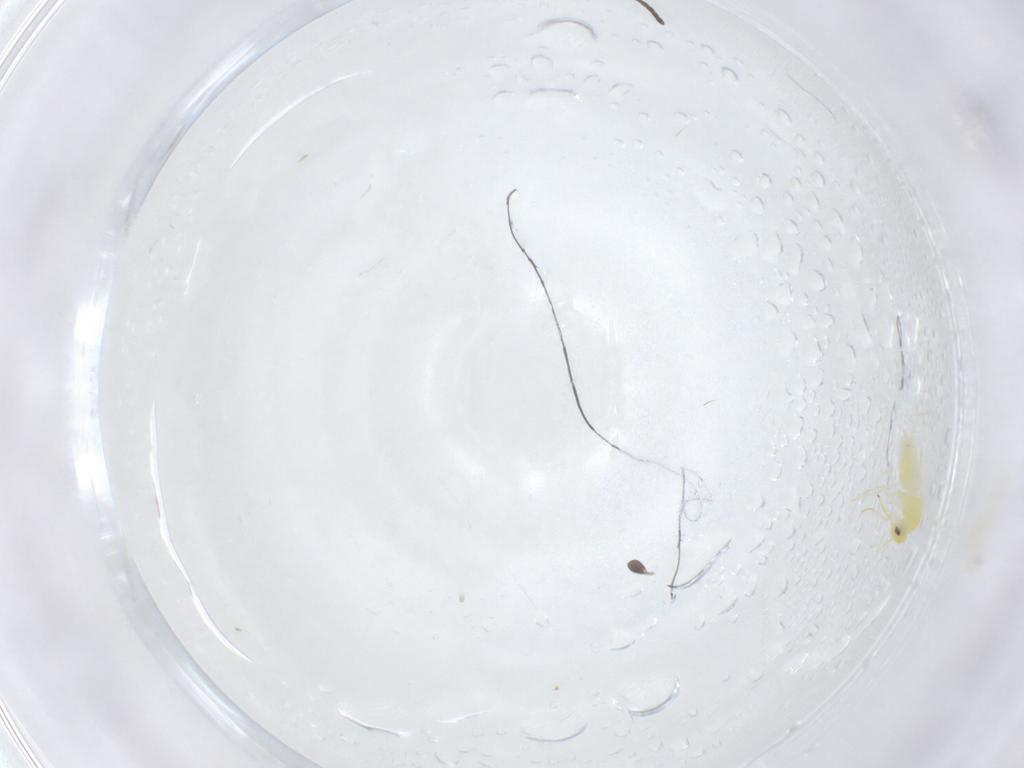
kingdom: Animalia
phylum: Arthropoda
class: Insecta
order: Diptera
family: Sciaridae
